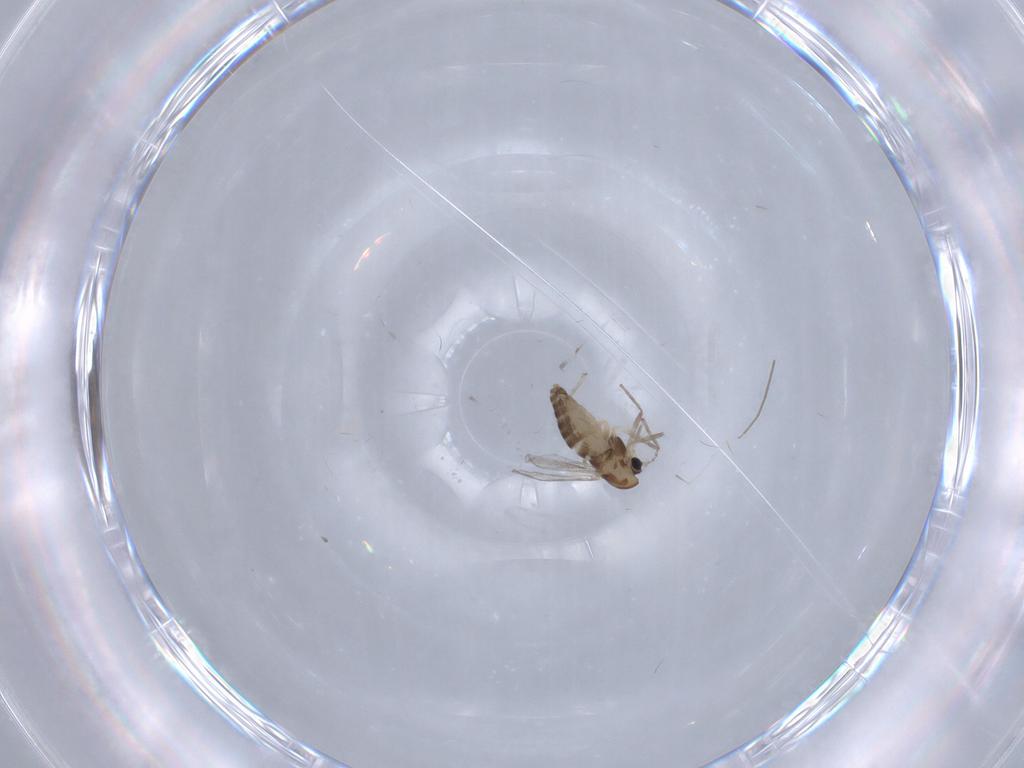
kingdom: Animalia
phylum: Arthropoda
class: Insecta
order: Diptera
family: Chironomidae
